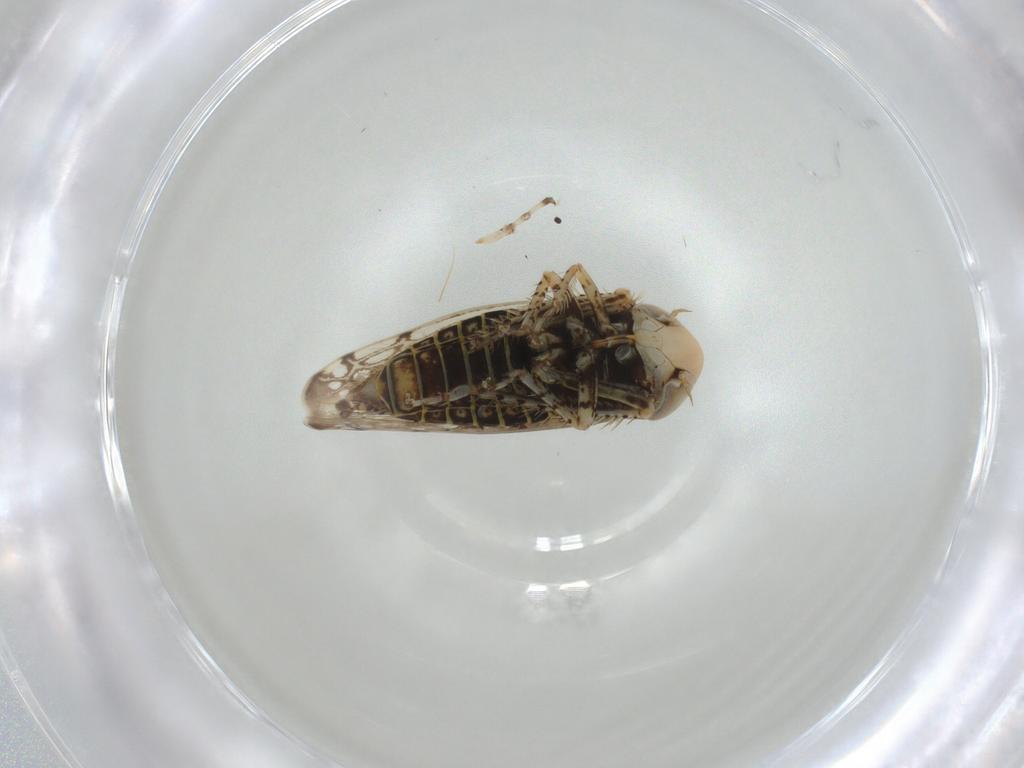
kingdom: Animalia
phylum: Arthropoda
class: Insecta
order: Hemiptera
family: Cicadellidae
